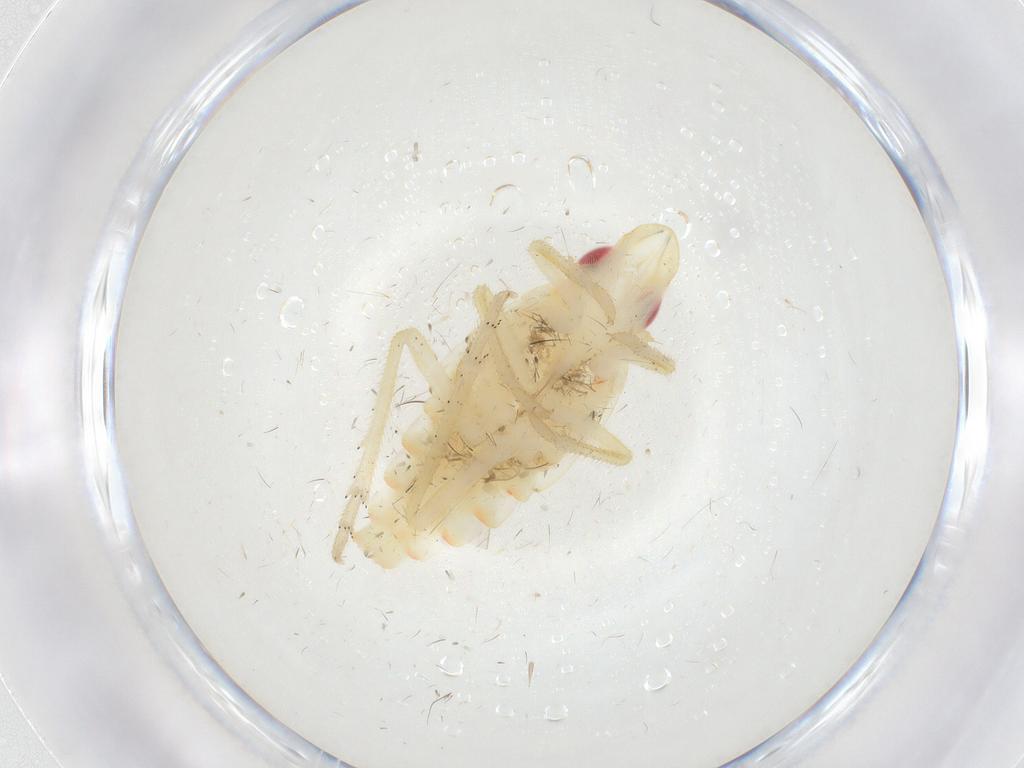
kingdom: Animalia
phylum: Arthropoda
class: Insecta
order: Hemiptera
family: Tropiduchidae
